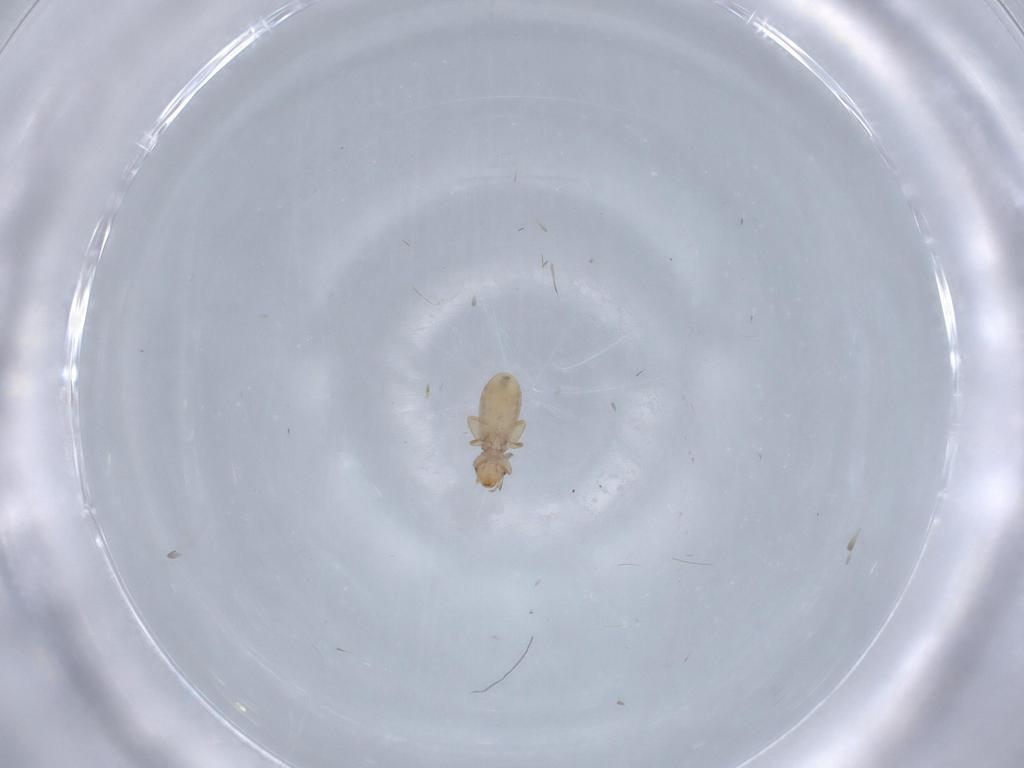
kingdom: Animalia
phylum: Arthropoda
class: Insecta
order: Psocodea
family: Liposcelididae
